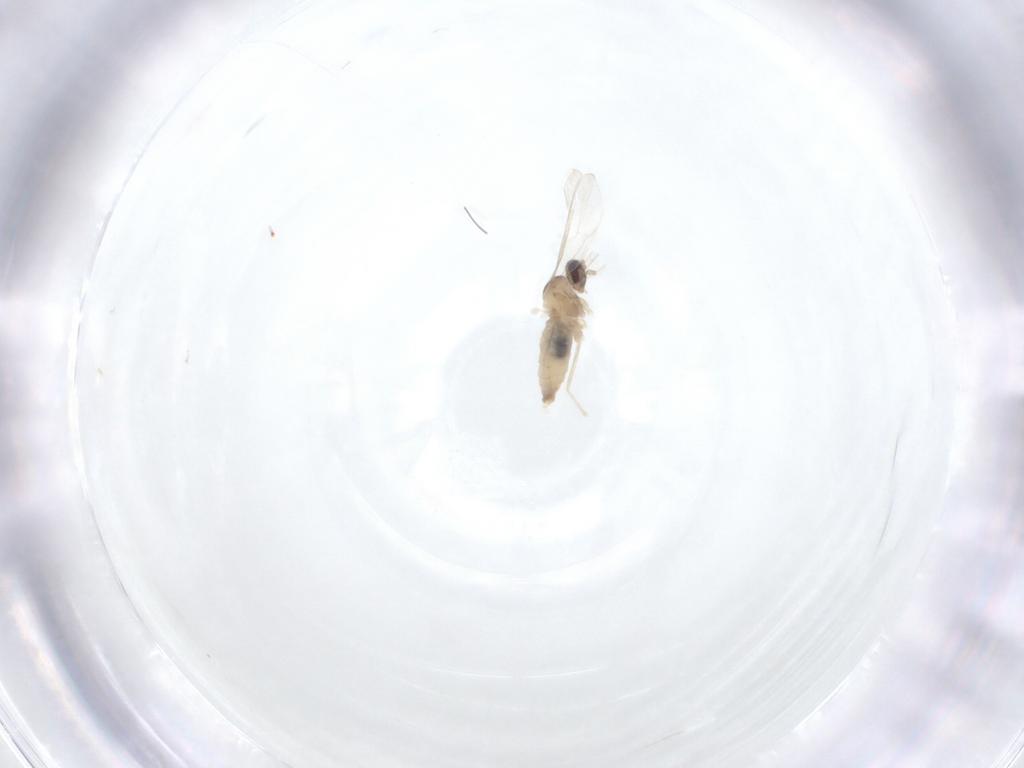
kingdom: Animalia
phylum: Arthropoda
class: Insecta
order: Diptera
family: Cecidomyiidae
